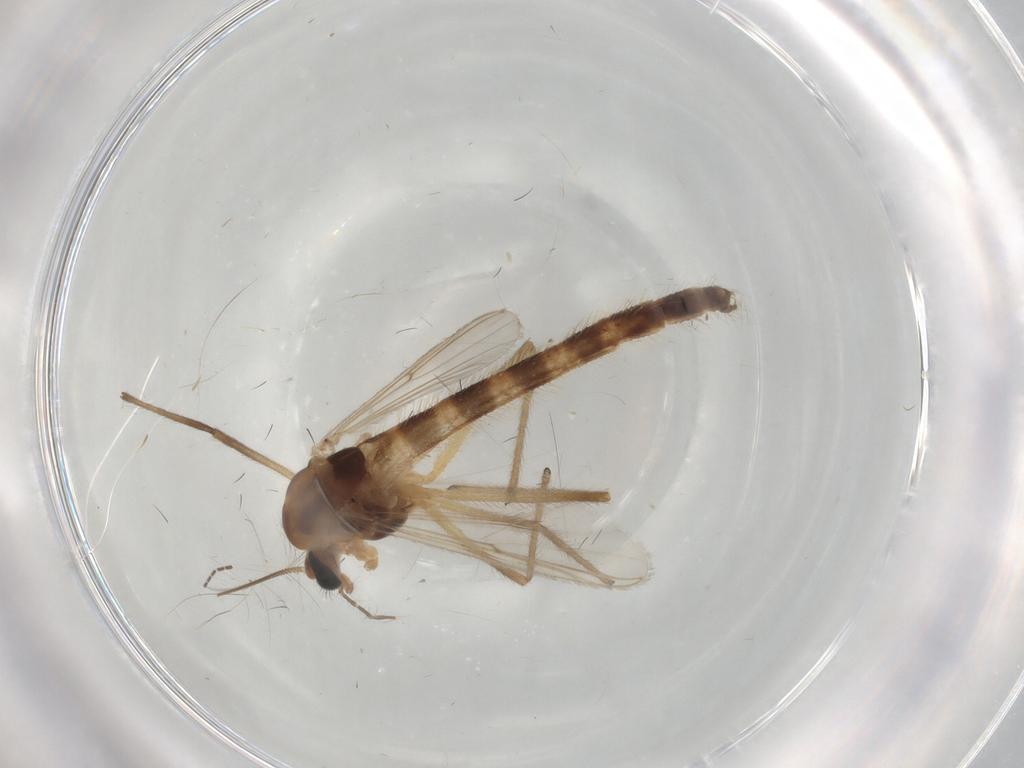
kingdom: Animalia
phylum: Arthropoda
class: Insecta
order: Diptera
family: Chironomidae
